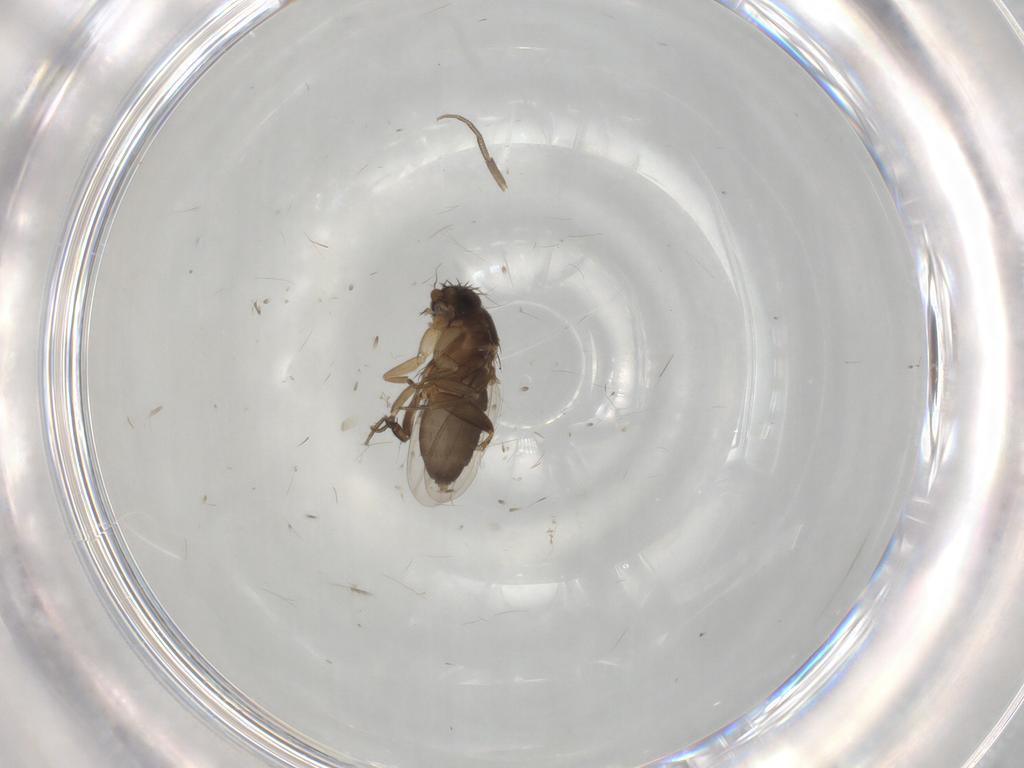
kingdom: Animalia
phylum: Arthropoda
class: Insecta
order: Diptera
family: Phoridae
